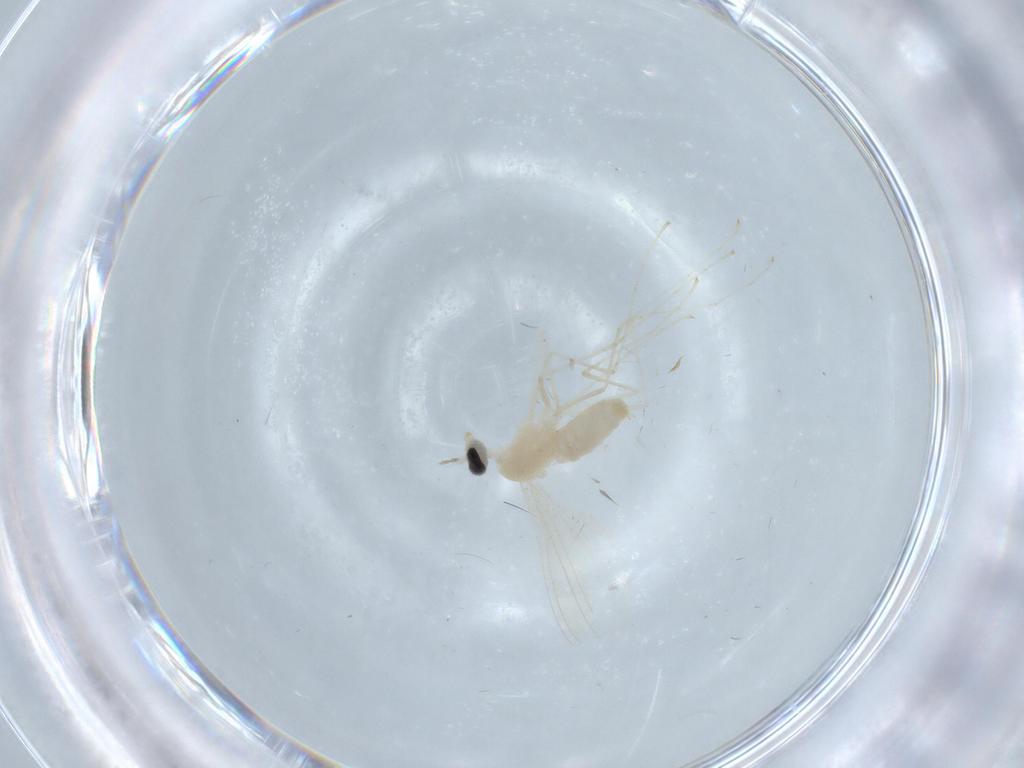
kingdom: Animalia
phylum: Arthropoda
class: Insecta
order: Diptera
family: Cecidomyiidae
